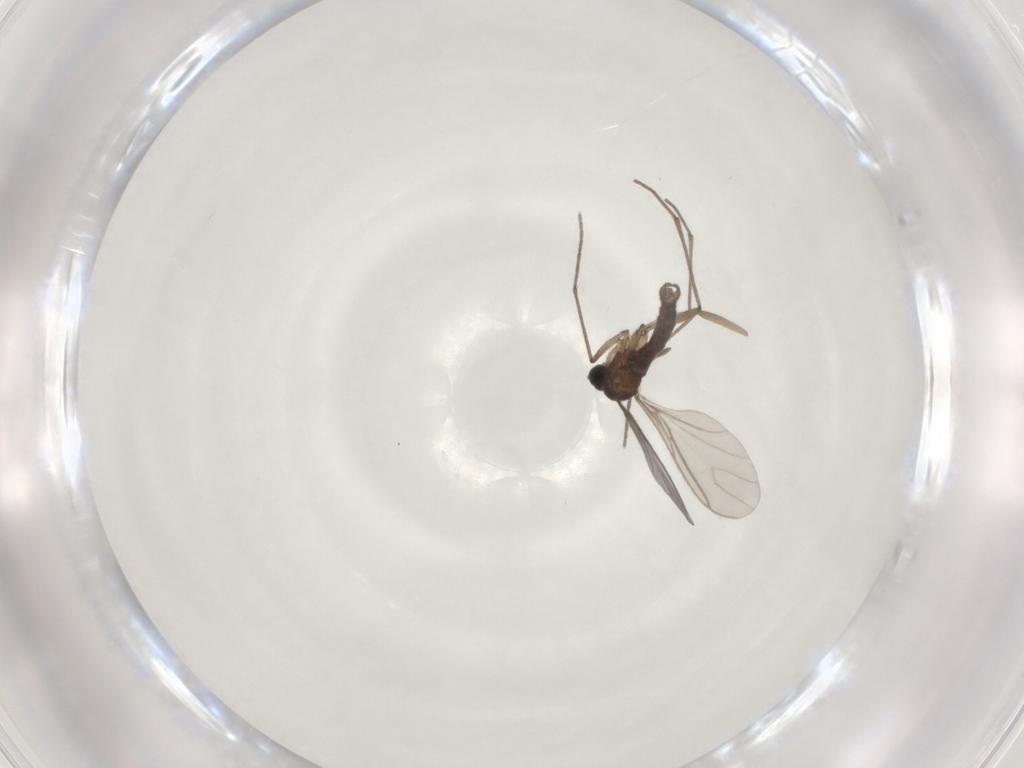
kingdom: Animalia
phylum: Arthropoda
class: Insecta
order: Diptera
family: Sciaridae
